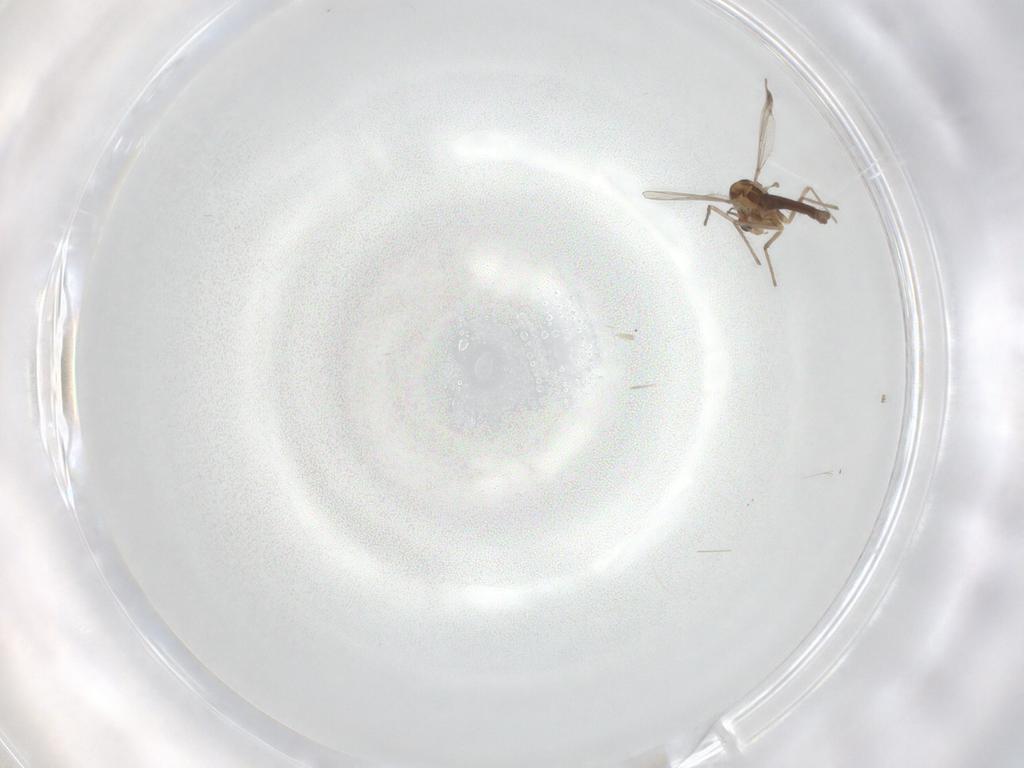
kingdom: Animalia
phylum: Arthropoda
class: Insecta
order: Diptera
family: Chironomidae
